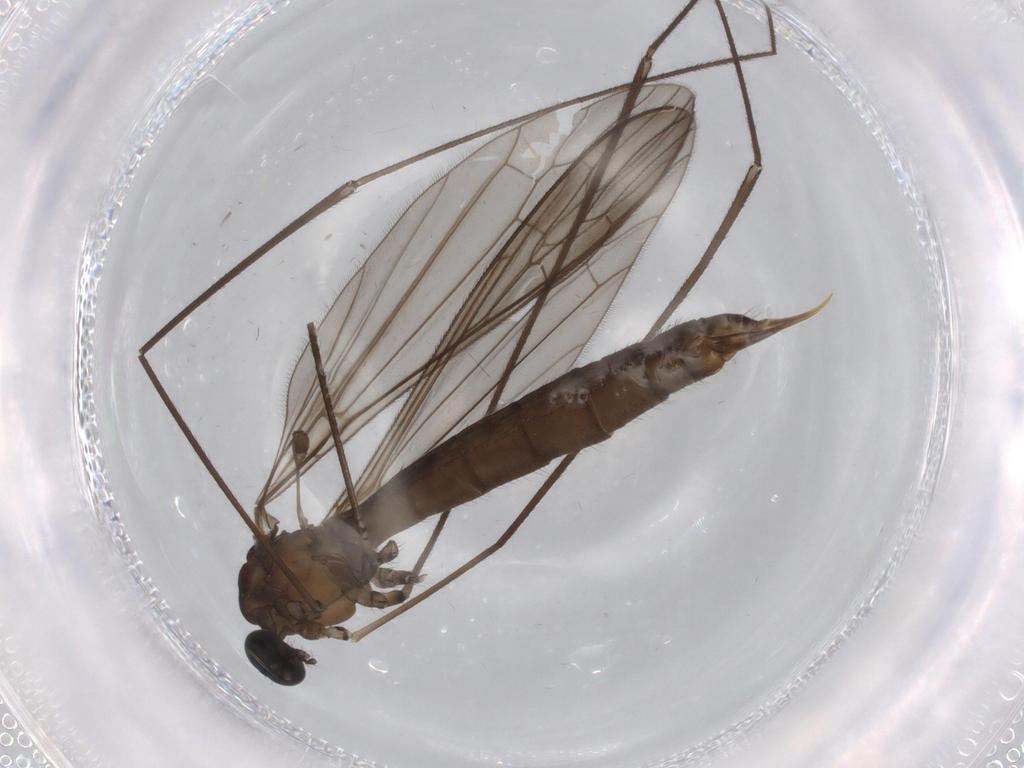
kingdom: Animalia
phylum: Arthropoda
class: Insecta
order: Diptera
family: Limoniidae
